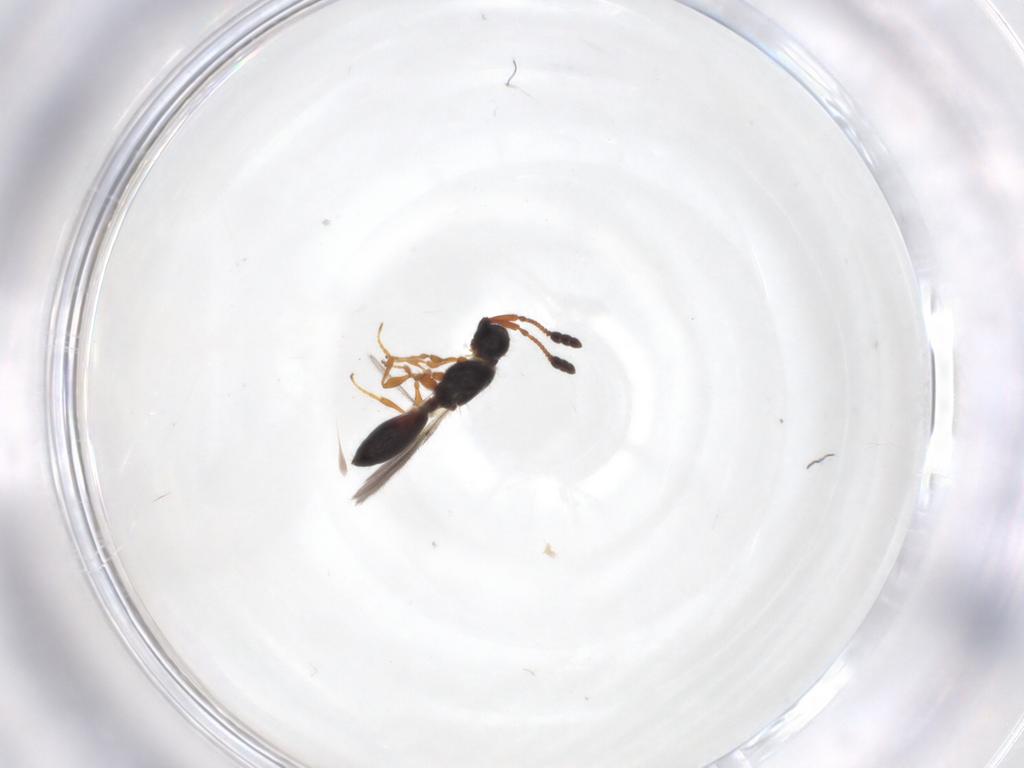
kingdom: Animalia
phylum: Arthropoda
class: Insecta
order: Hymenoptera
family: Diapriidae
